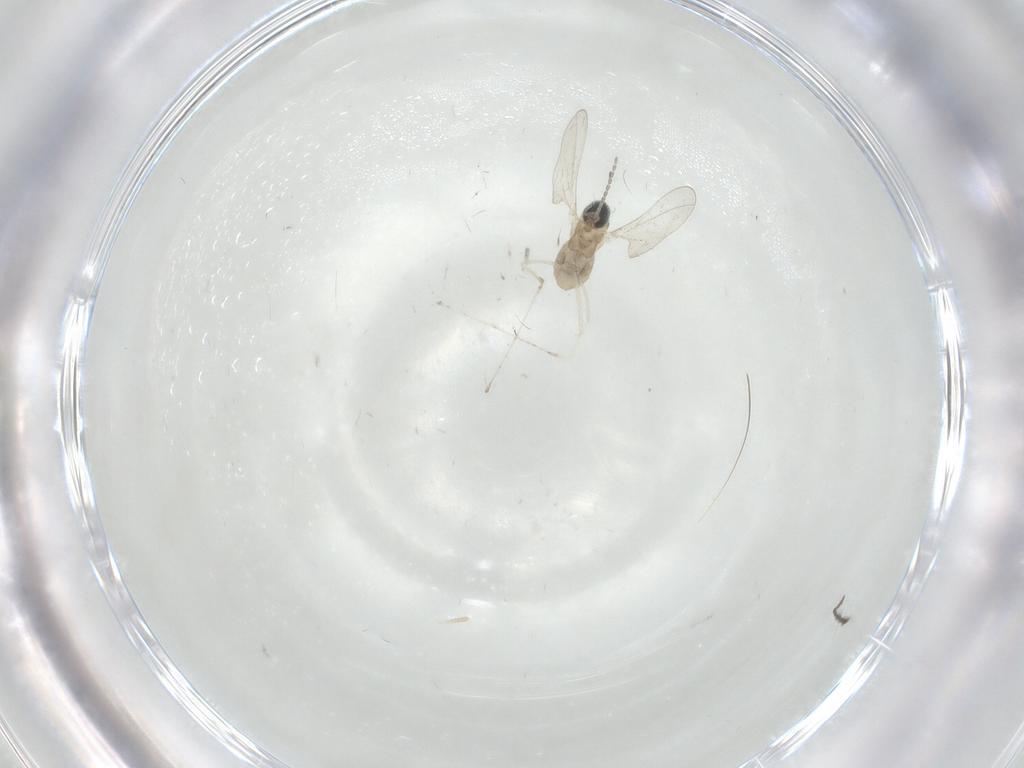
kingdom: Animalia
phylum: Arthropoda
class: Insecta
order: Diptera
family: Cecidomyiidae
